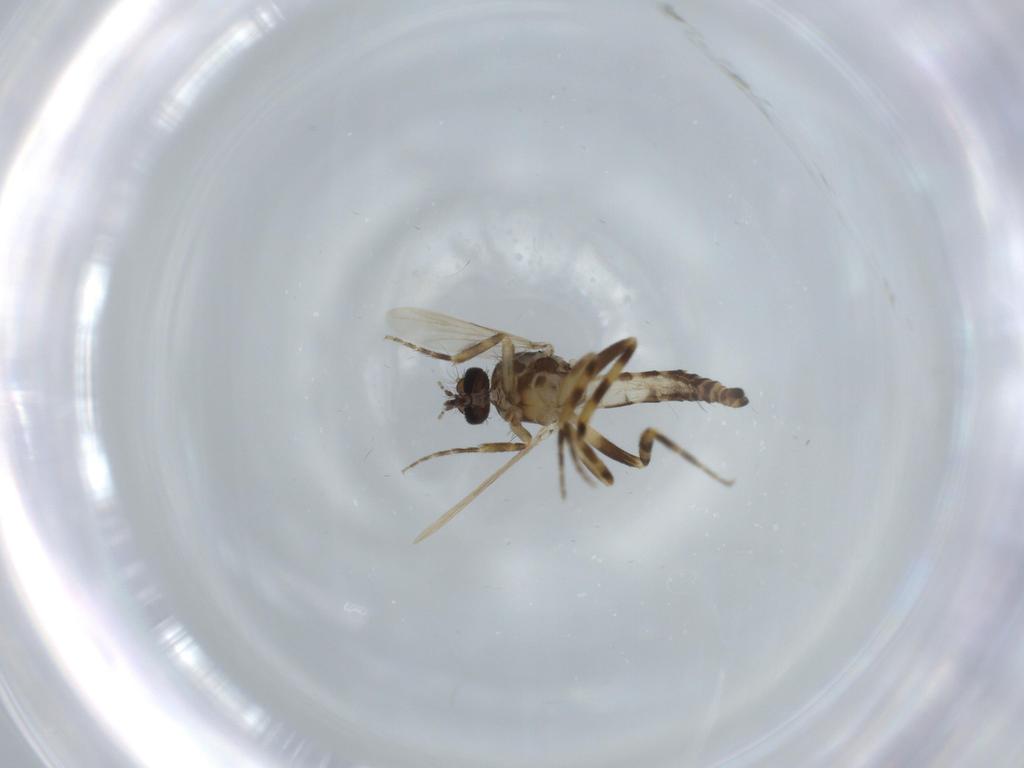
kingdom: Animalia
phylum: Arthropoda
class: Insecta
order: Diptera
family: Ceratopogonidae
